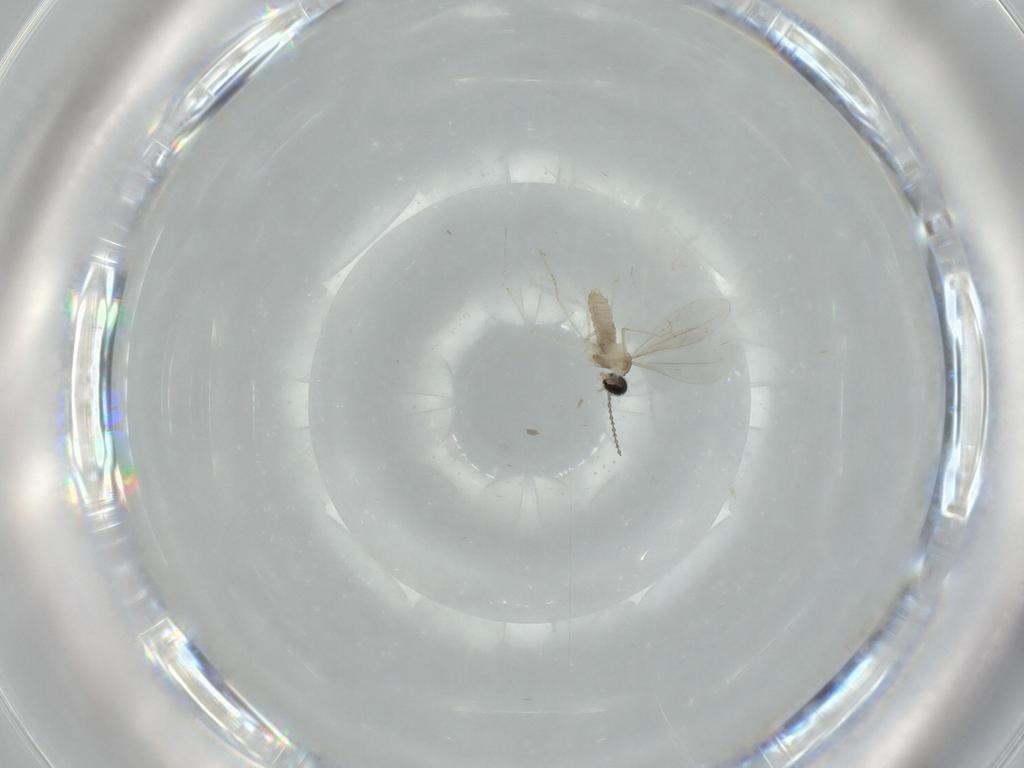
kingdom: Animalia
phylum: Arthropoda
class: Insecta
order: Diptera
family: Cecidomyiidae
